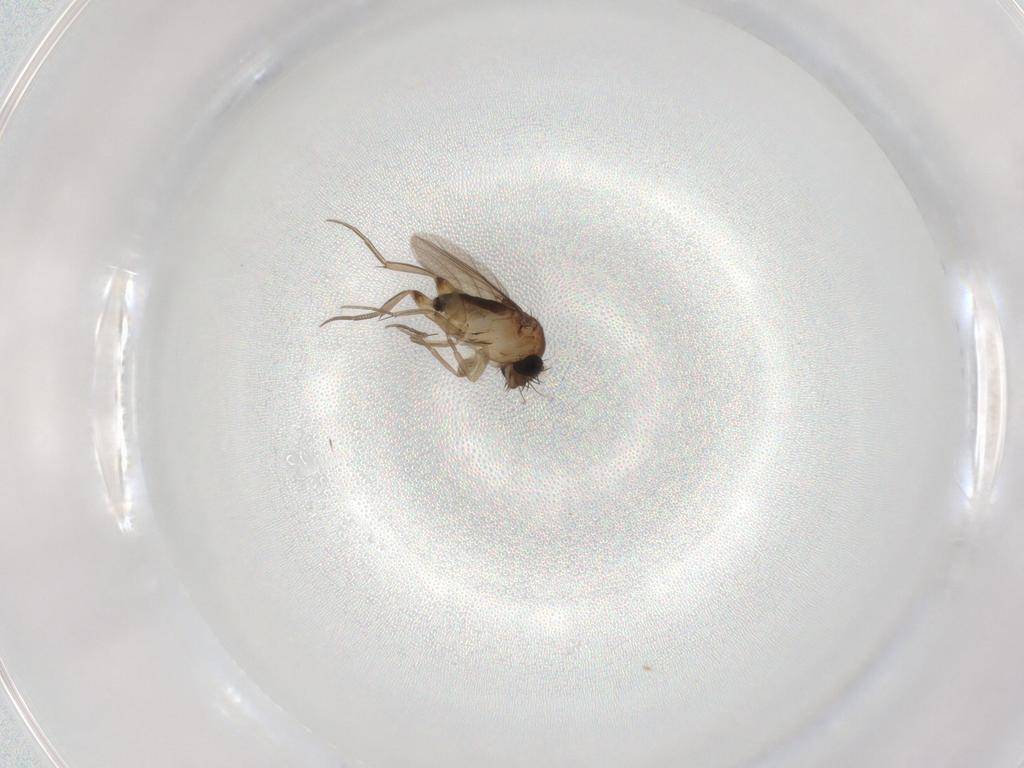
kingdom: Animalia
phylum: Arthropoda
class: Insecta
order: Diptera
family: Phoridae
